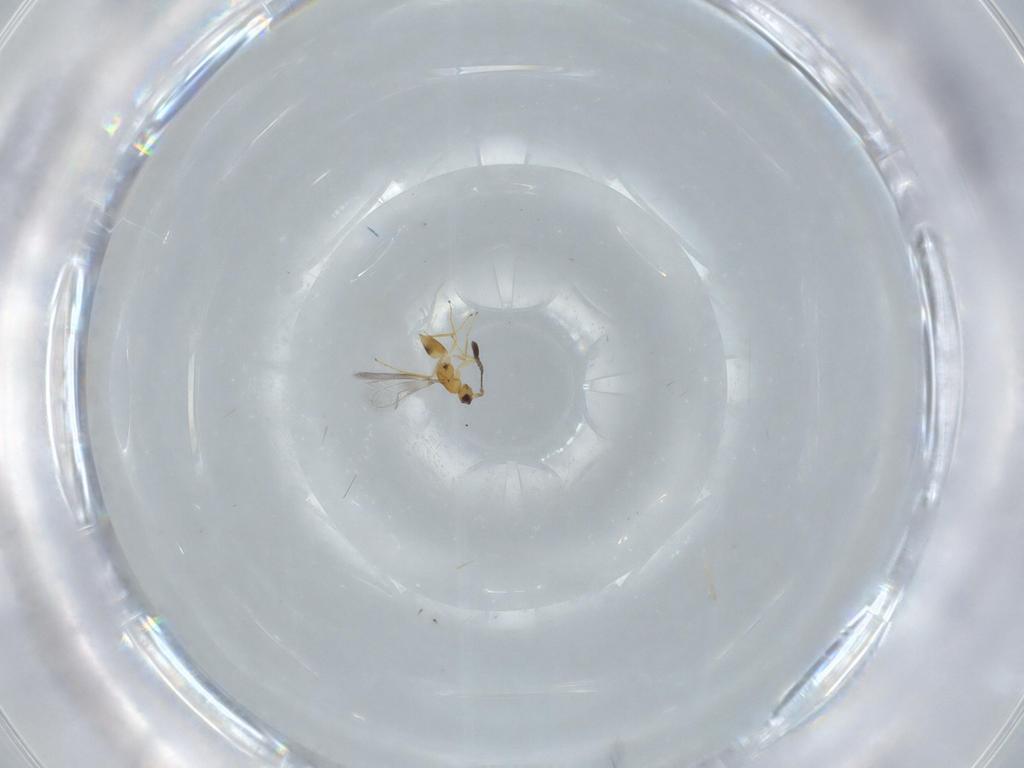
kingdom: Animalia
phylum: Arthropoda
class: Insecta
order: Hymenoptera
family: Mymaridae
